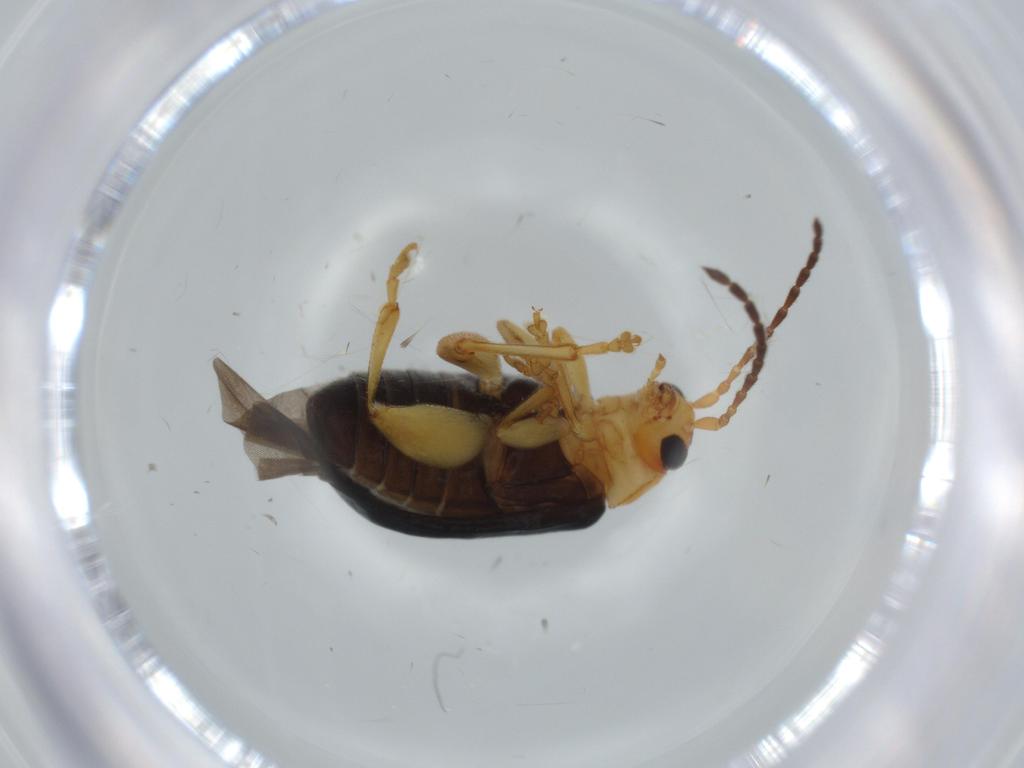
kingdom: Animalia
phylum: Arthropoda
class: Insecta
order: Coleoptera
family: Chrysomelidae
